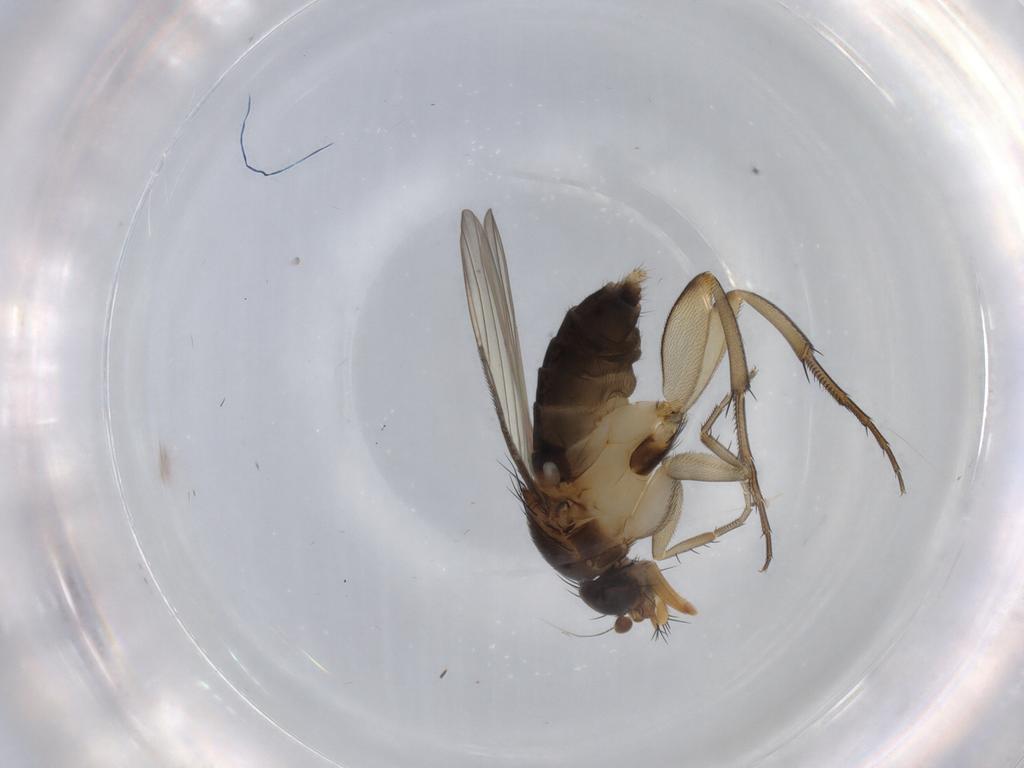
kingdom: Animalia
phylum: Arthropoda
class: Insecta
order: Diptera
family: Phoridae
